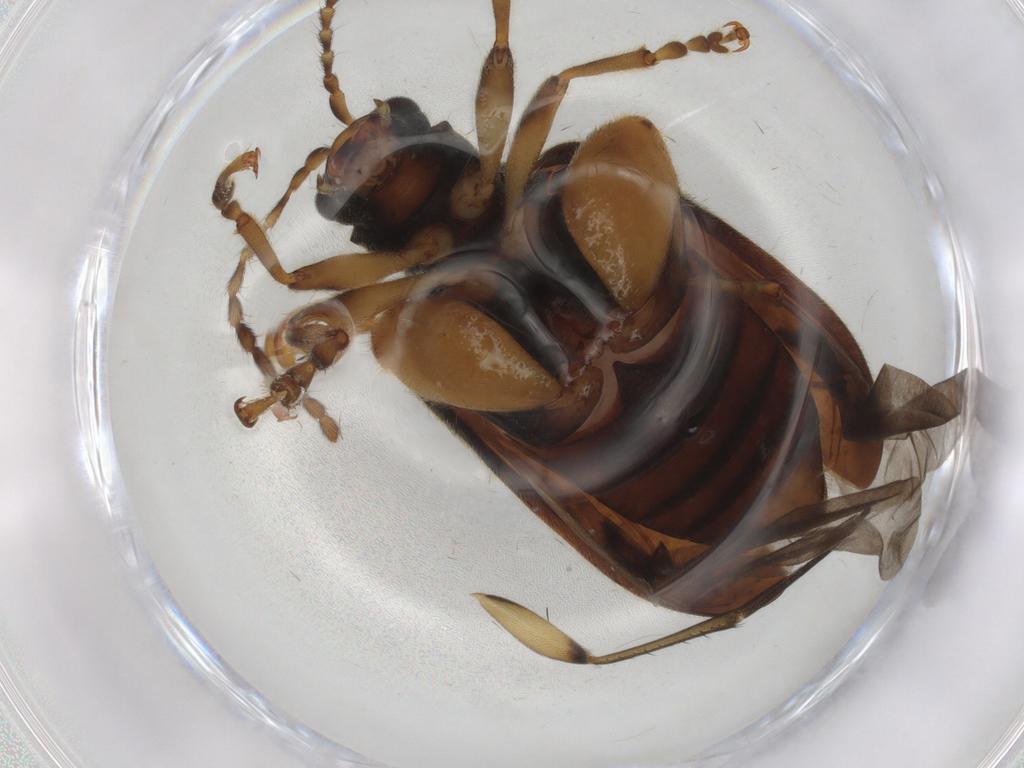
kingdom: Animalia
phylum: Arthropoda
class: Insecta
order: Coleoptera
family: Chrysomelidae
